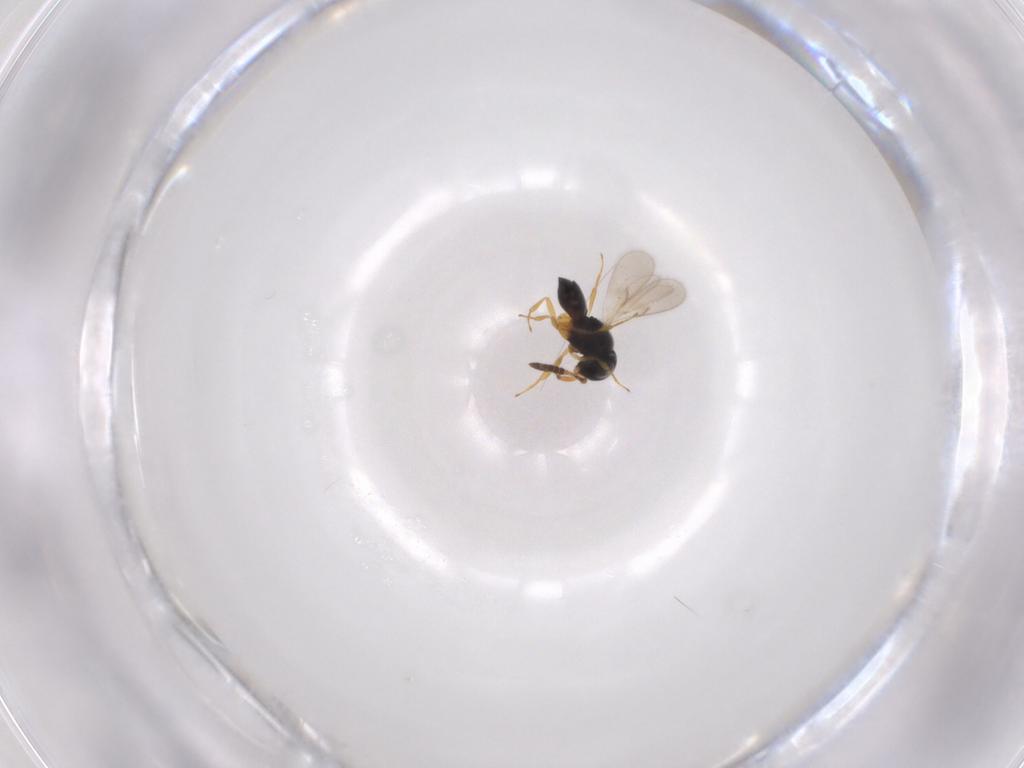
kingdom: Animalia
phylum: Arthropoda
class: Insecta
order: Hymenoptera
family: Scelionidae
